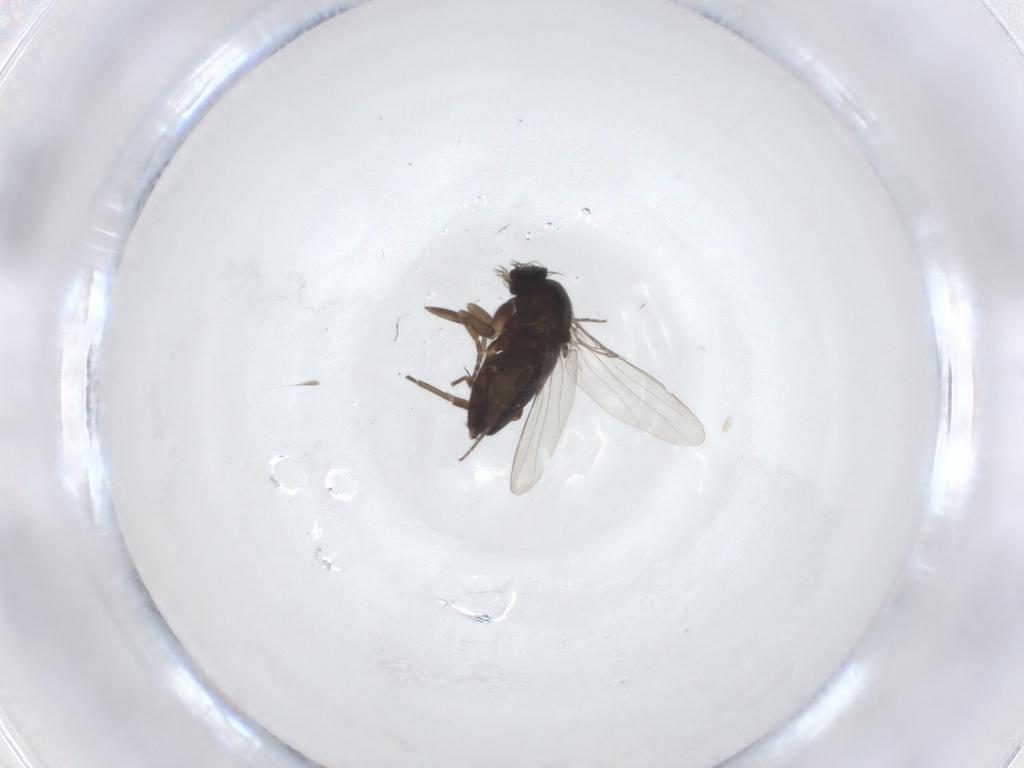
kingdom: Animalia
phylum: Arthropoda
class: Insecta
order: Diptera
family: Phoridae
